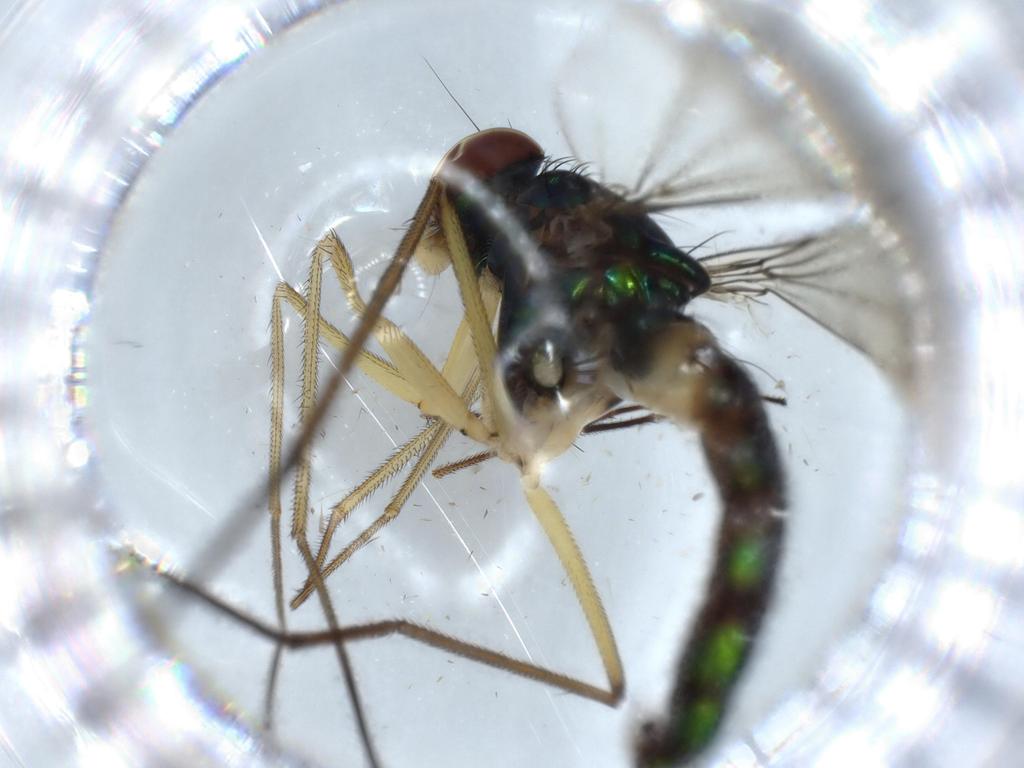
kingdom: Animalia
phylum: Arthropoda
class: Insecta
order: Diptera
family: Dolichopodidae
